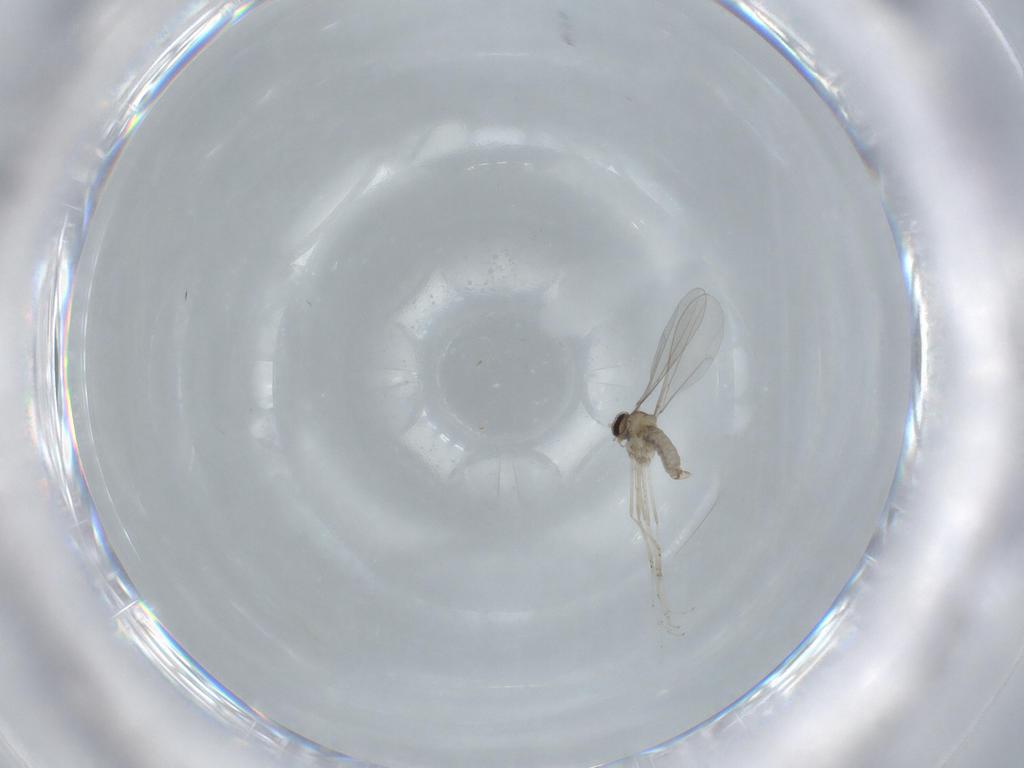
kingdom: Animalia
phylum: Arthropoda
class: Insecta
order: Diptera
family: Cecidomyiidae
